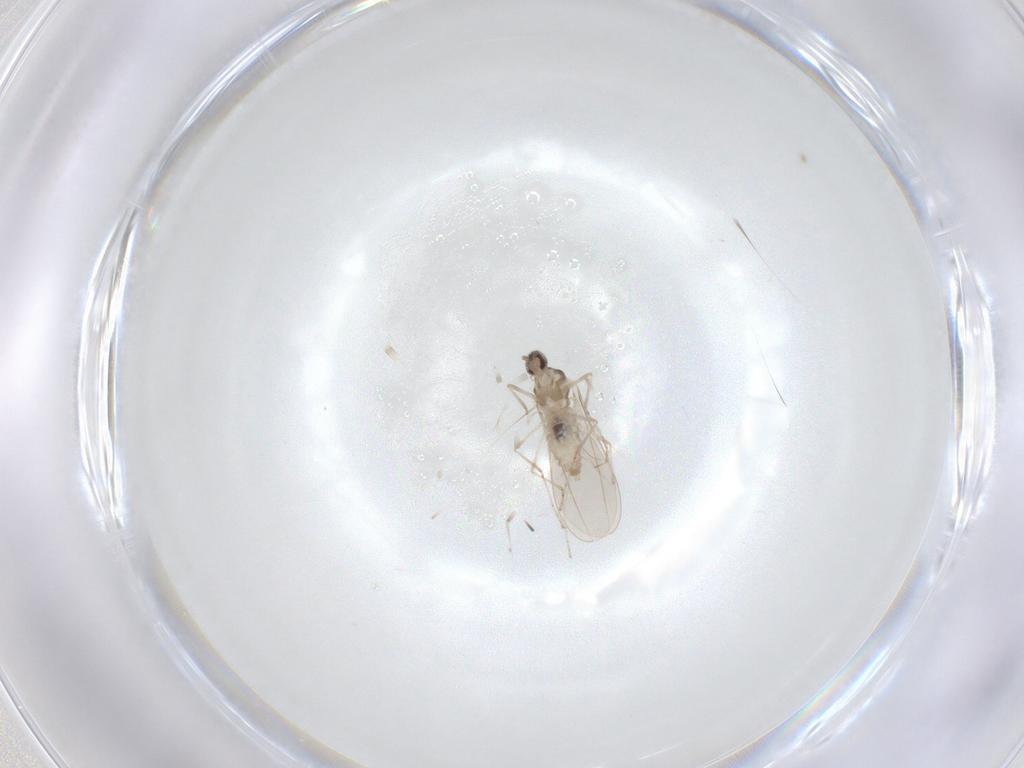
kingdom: Animalia
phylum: Arthropoda
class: Insecta
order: Diptera
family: Cecidomyiidae
